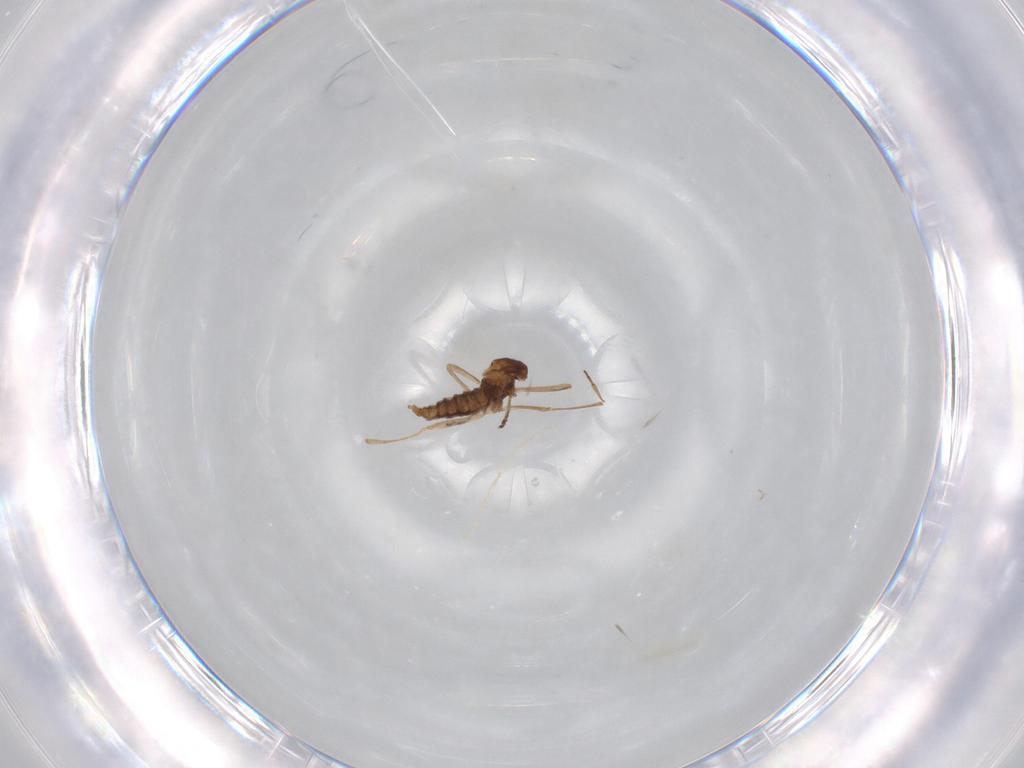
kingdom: Animalia
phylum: Arthropoda
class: Insecta
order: Diptera
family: Cecidomyiidae
